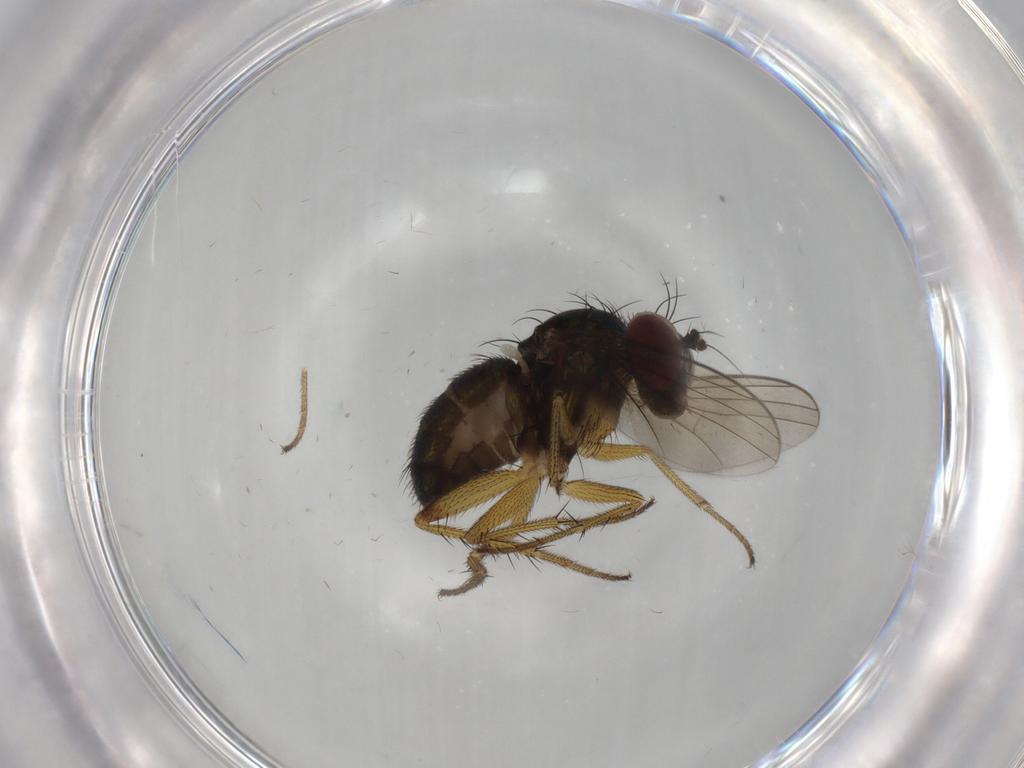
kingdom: Animalia
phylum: Arthropoda
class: Insecta
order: Diptera
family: Dolichopodidae
